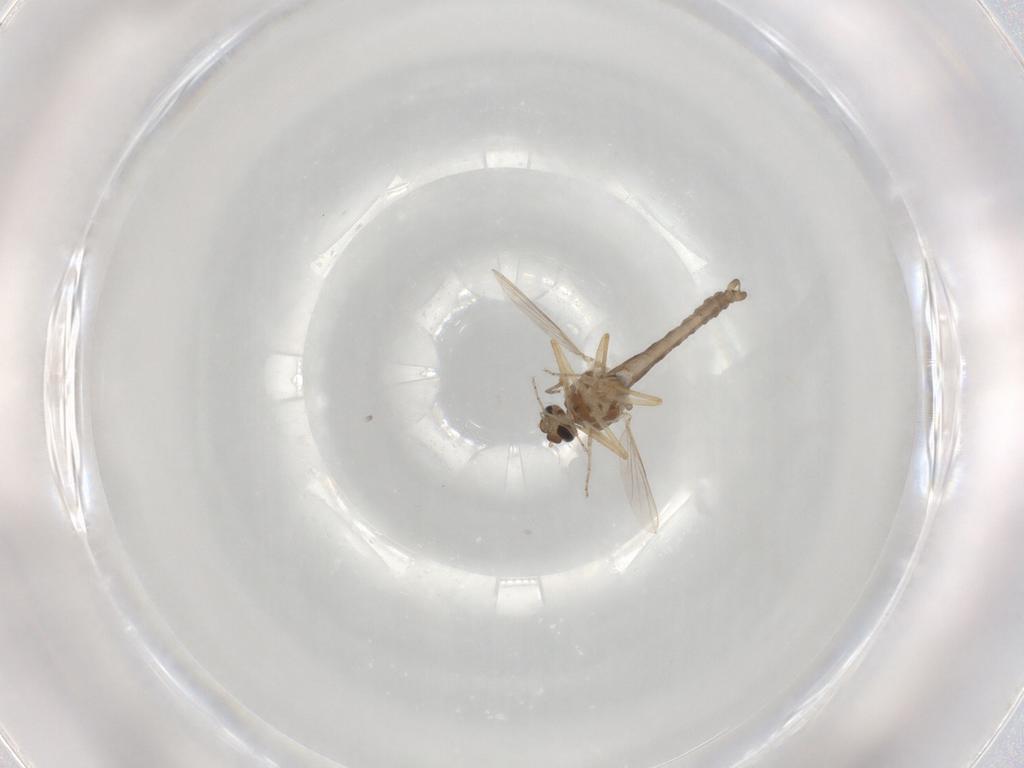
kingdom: Animalia
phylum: Arthropoda
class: Insecta
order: Diptera
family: Ceratopogonidae
